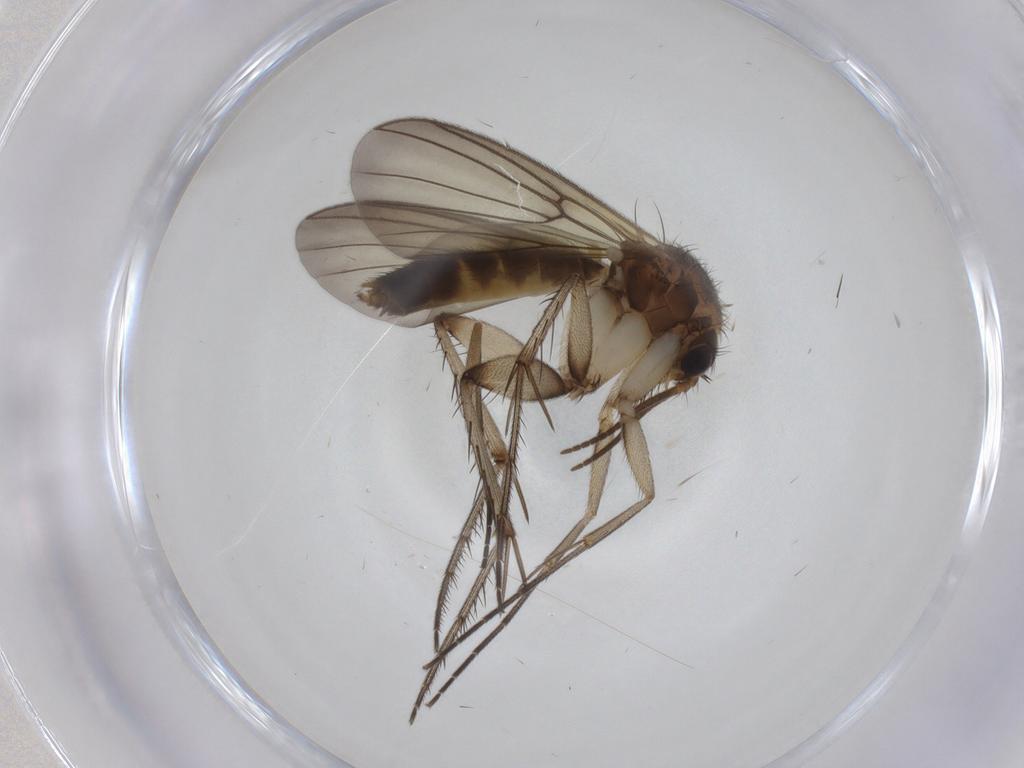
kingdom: Animalia
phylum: Arthropoda
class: Insecta
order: Diptera
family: Mycetophilidae
